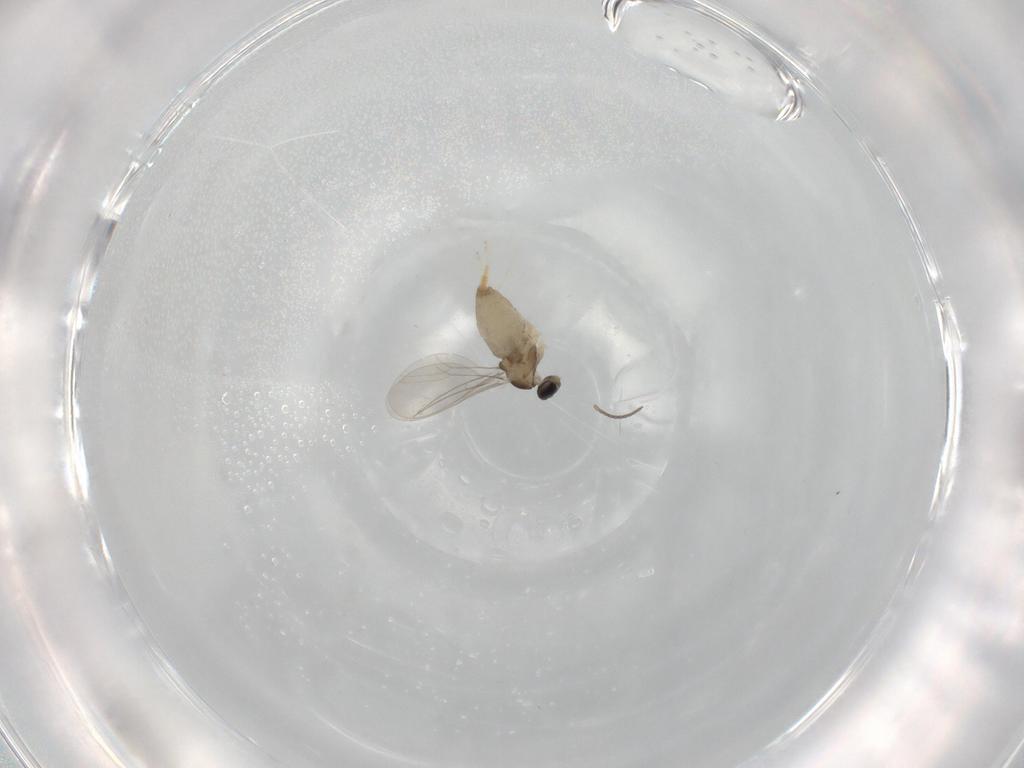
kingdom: Animalia
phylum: Arthropoda
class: Insecta
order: Diptera
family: Cecidomyiidae
